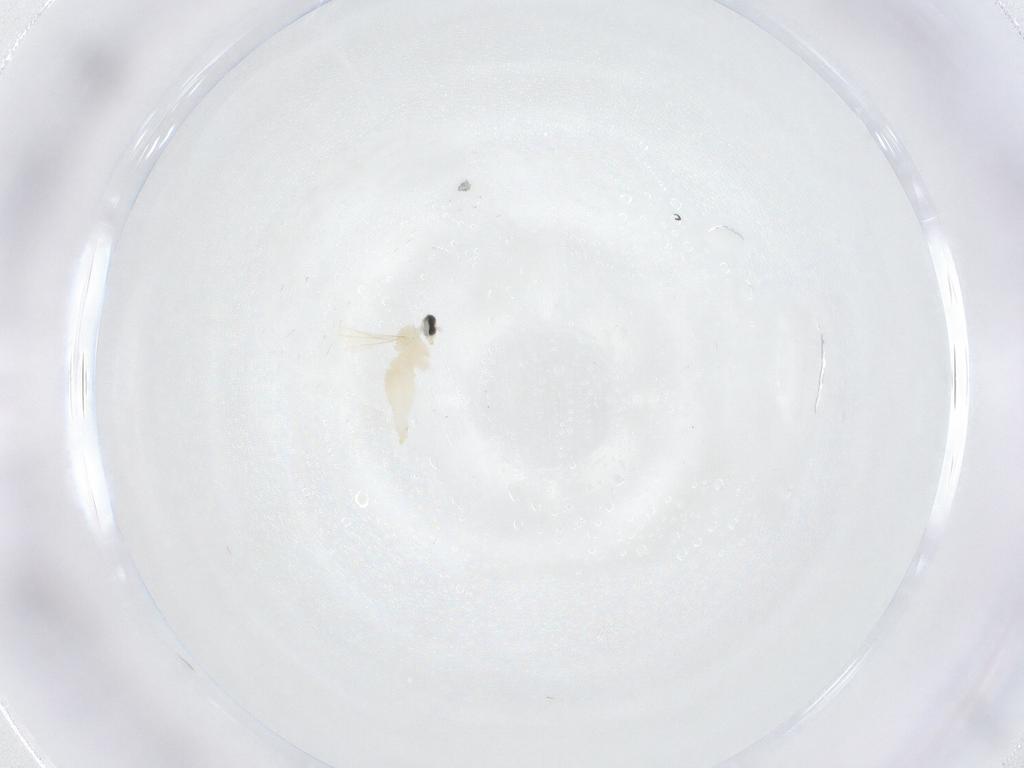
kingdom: Animalia
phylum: Arthropoda
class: Insecta
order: Diptera
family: Cecidomyiidae
